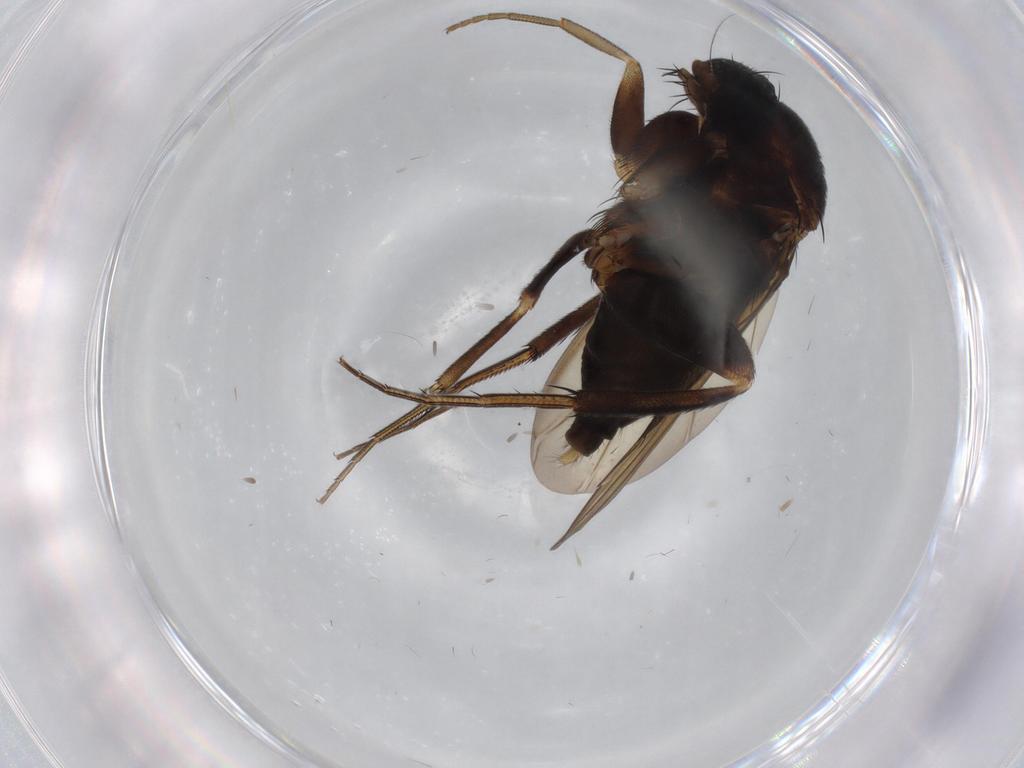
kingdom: Animalia
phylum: Arthropoda
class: Insecta
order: Diptera
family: Phoridae
